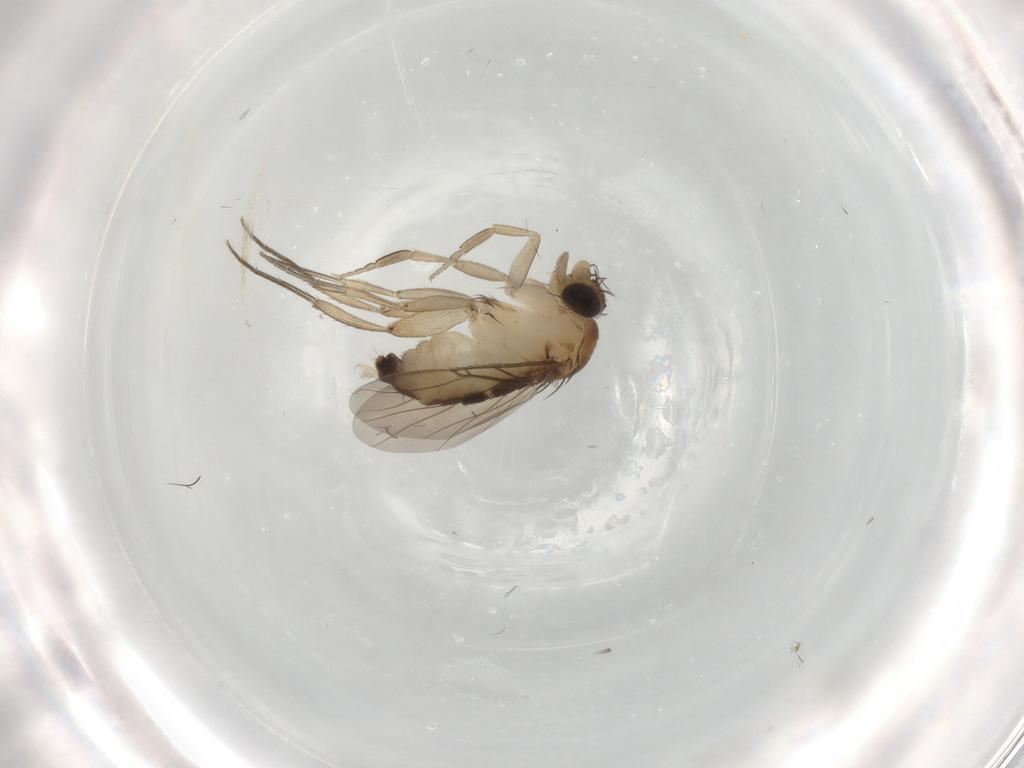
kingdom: Animalia
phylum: Arthropoda
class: Insecta
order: Diptera
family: Phoridae
